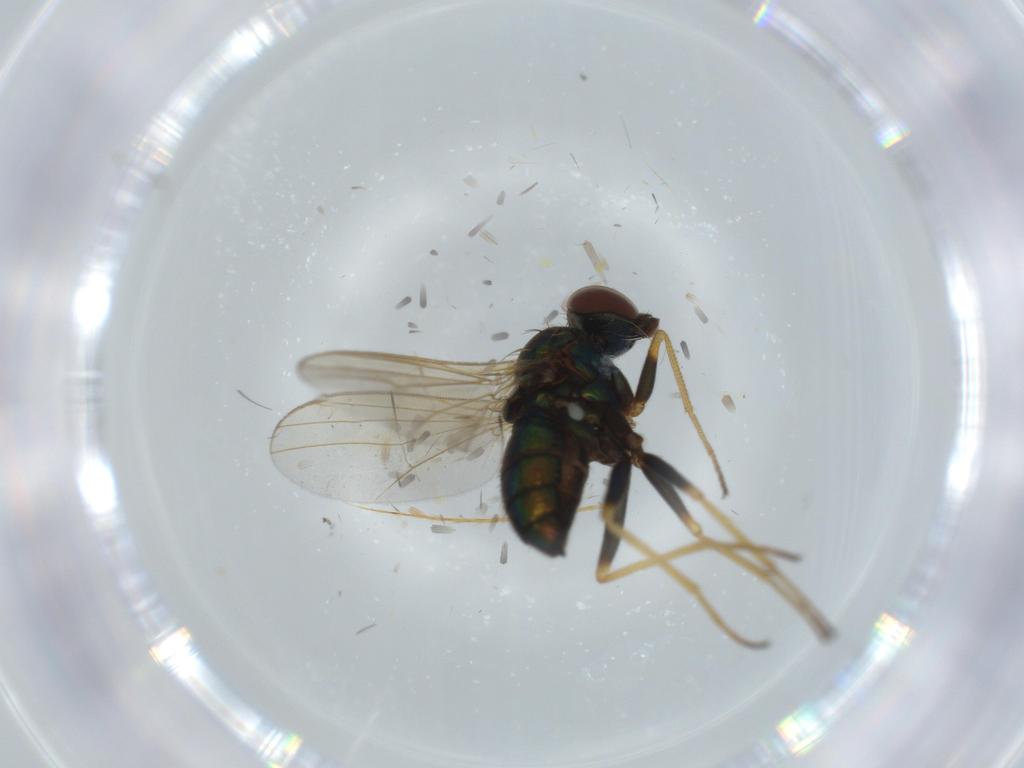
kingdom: Animalia
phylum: Arthropoda
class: Insecta
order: Diptera
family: Dolichopodidae
